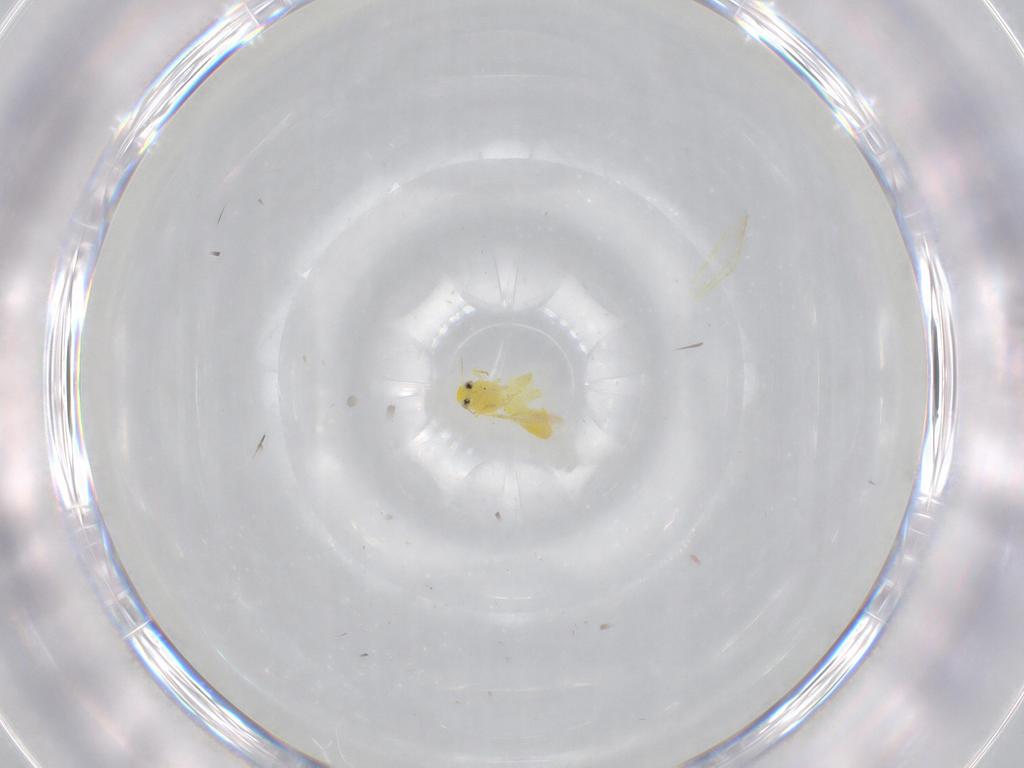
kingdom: Animalia
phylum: Arthropoda
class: Insecta
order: Hemiptera
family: Aleyrodidae
